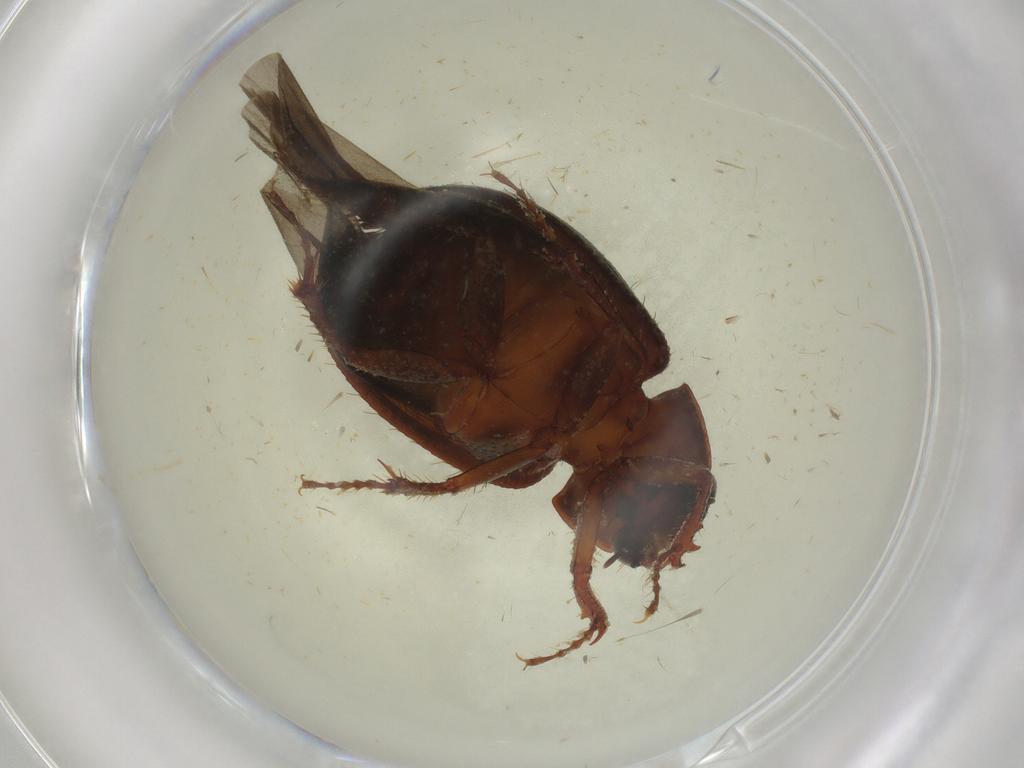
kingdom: Animalia
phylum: Arthropoda
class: Insecta
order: Coleoptera
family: Hybosoridae
